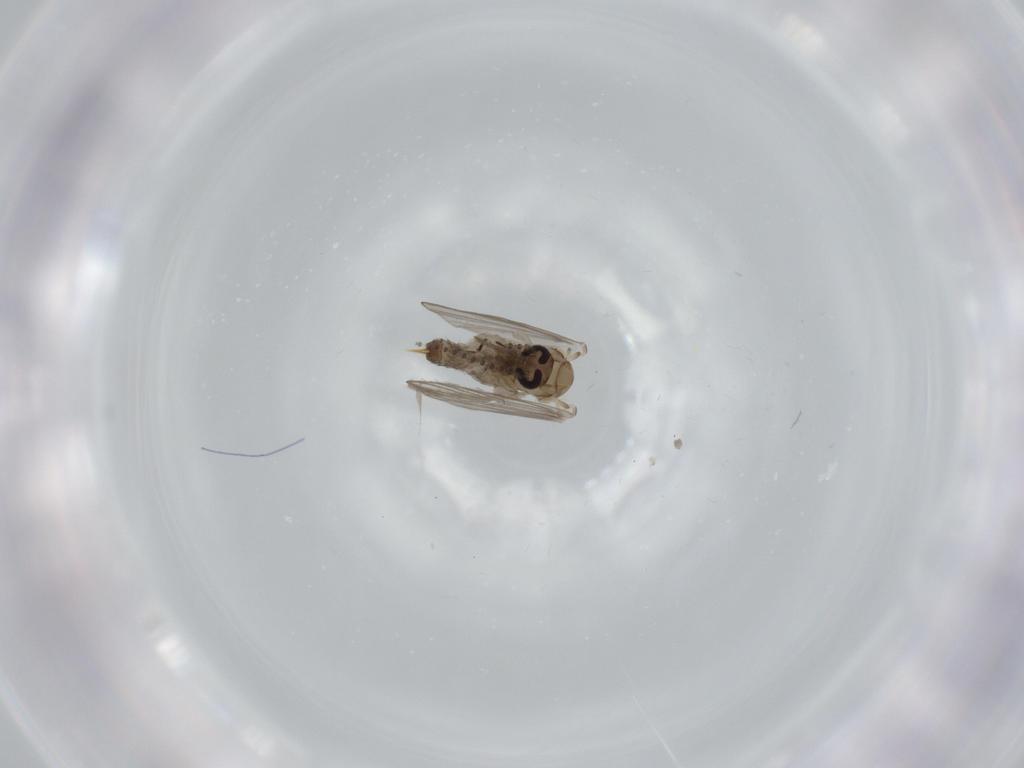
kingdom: Animalia
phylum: Arthropoda
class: Insecta
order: Diptera
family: Psychodidae
